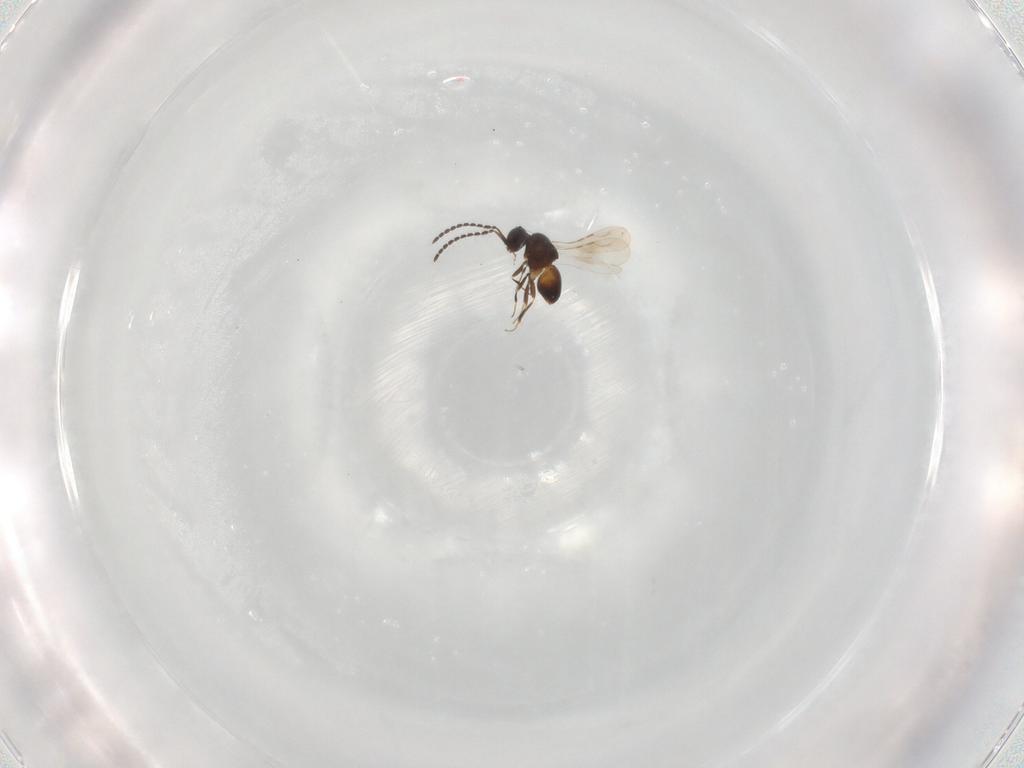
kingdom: Animalia
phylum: Arthropoda
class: Insecta
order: Hymenoptera
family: Ceraphronidae
